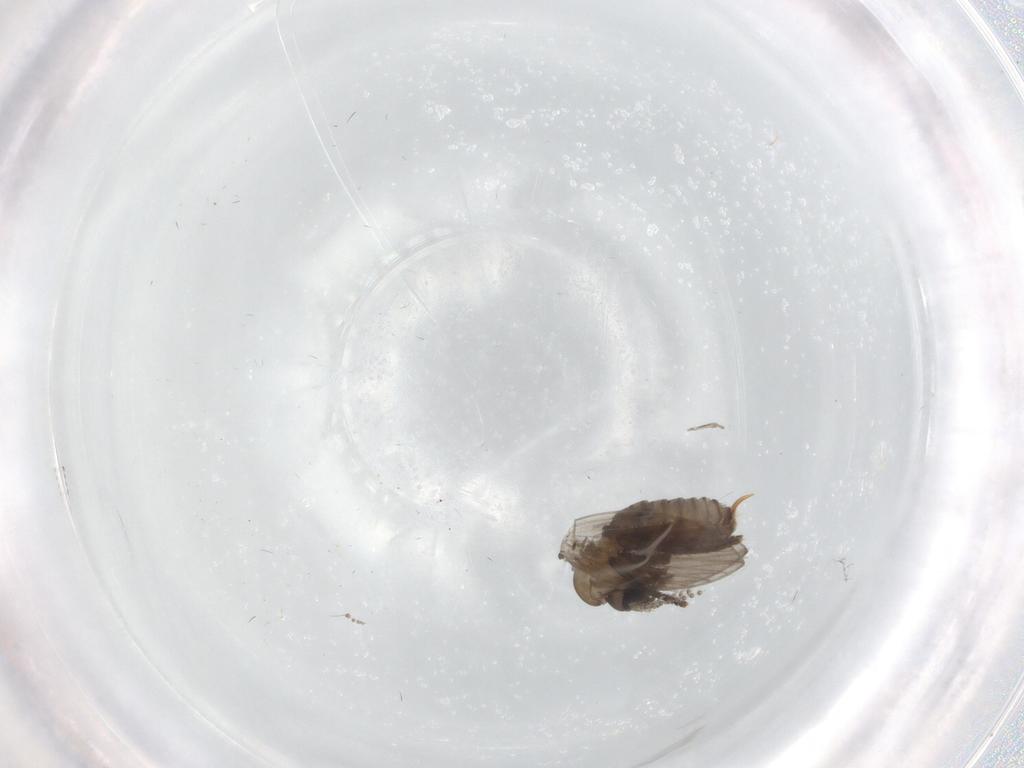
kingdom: Animalia
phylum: Arthropoda
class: Insecta
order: Diptera
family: Psychodidae
